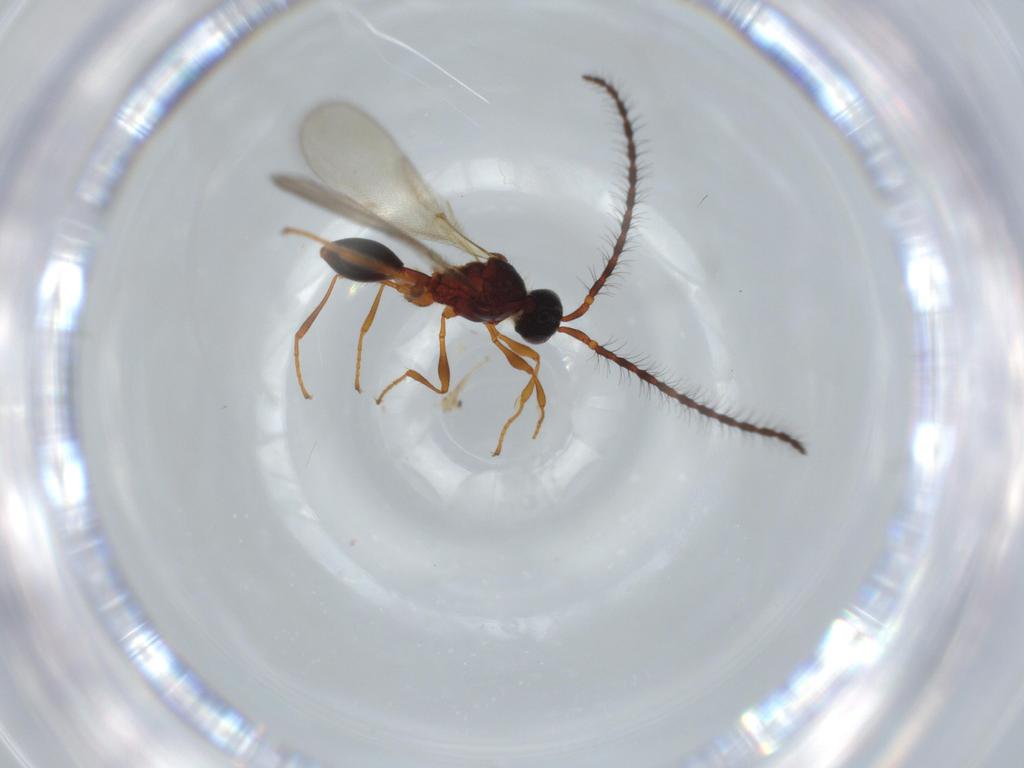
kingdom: Animalia
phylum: Arthropoda
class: Insecta
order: Hymenoptera
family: Diapriidae
